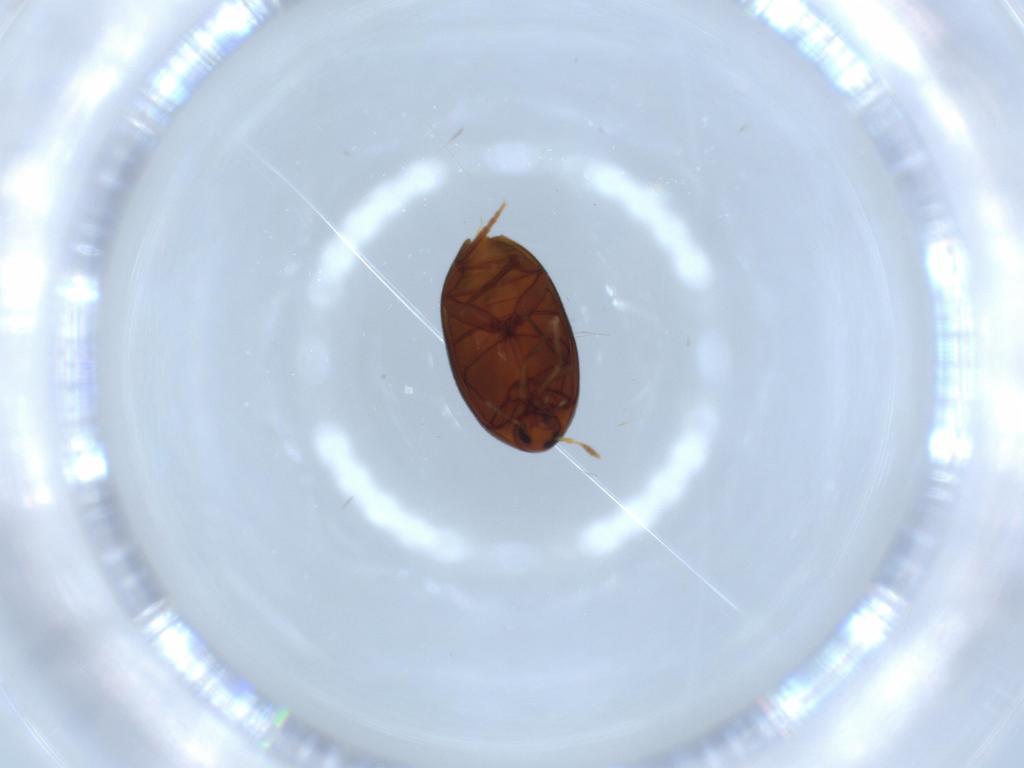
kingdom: Animalia
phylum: Arthropoda
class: Insecta
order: Coleoptera
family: Melandryidae
